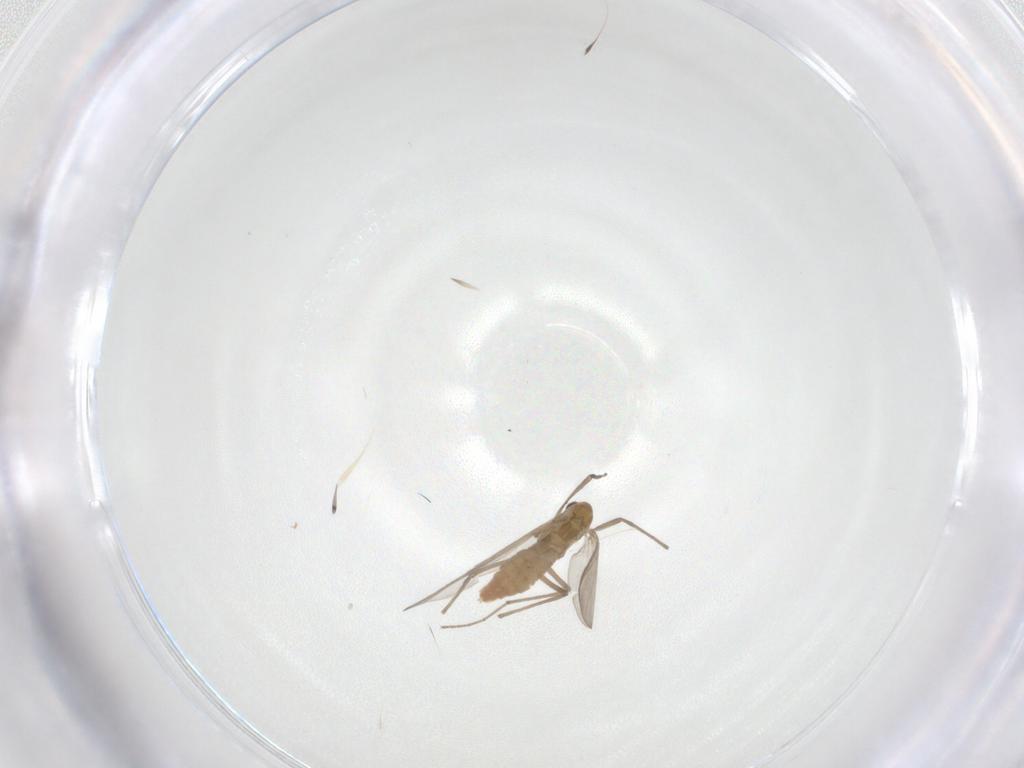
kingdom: Animalia
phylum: Arthropoda
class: Insecta
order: Diptera
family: Chironomidae
